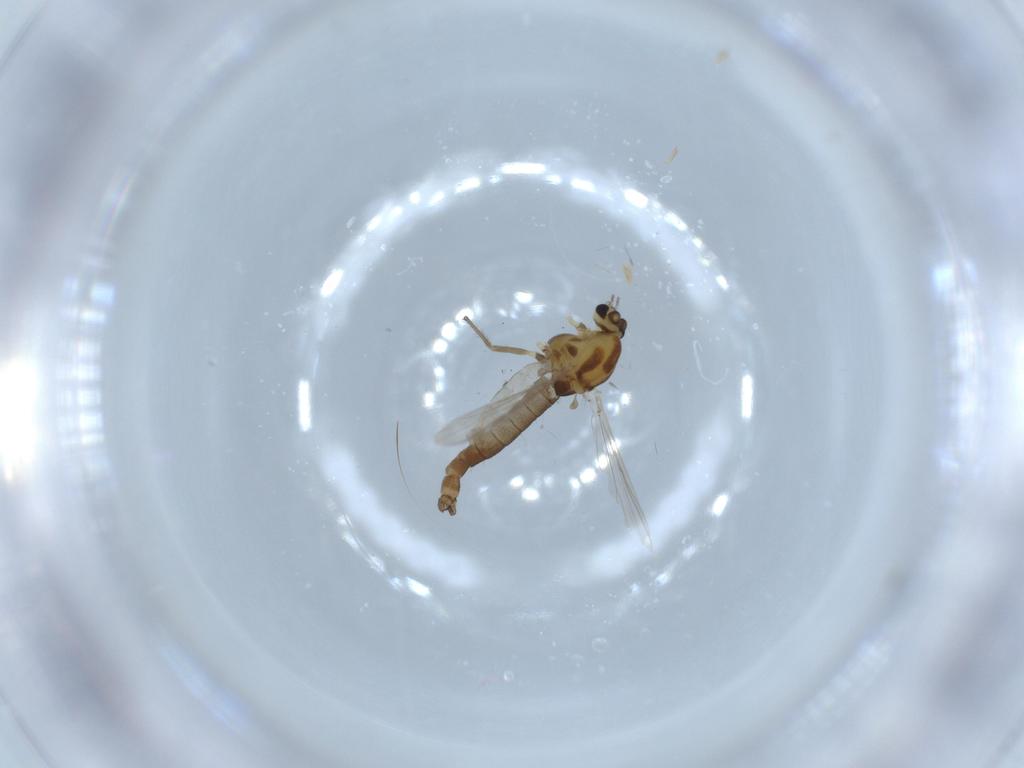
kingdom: Animalia
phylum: Arthropoda
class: Insecta
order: Diptera
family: Chironomidae
